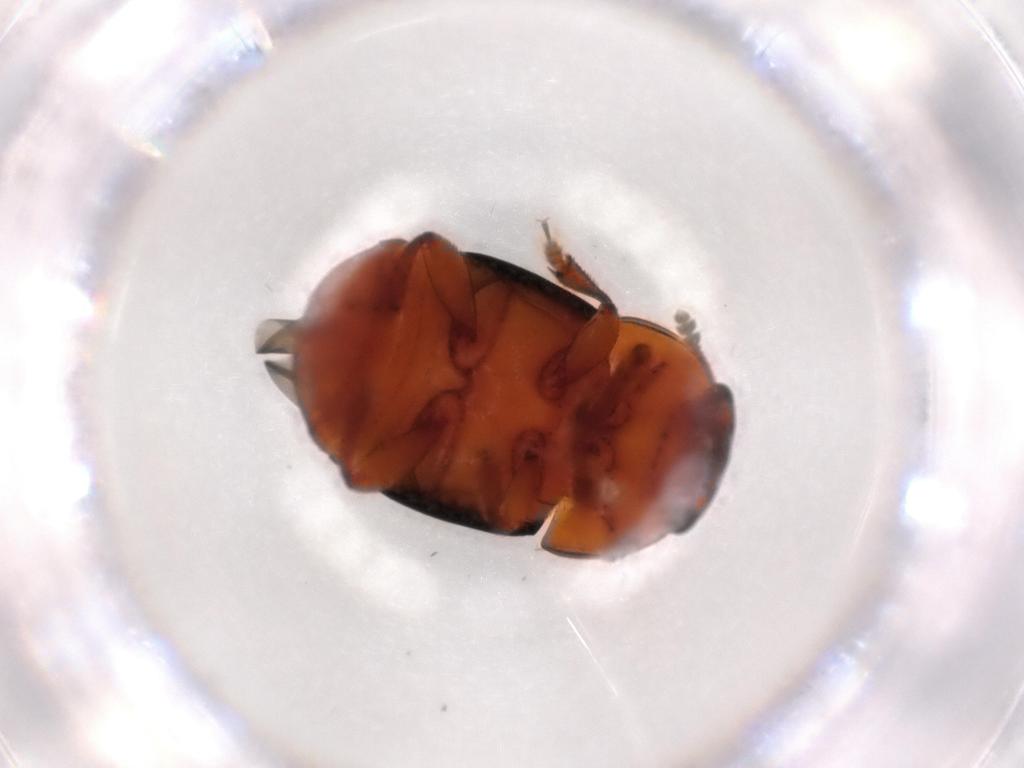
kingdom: Animalia
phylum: Arthropoda
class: Insecta
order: Coleoptera
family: Nitidulidae
